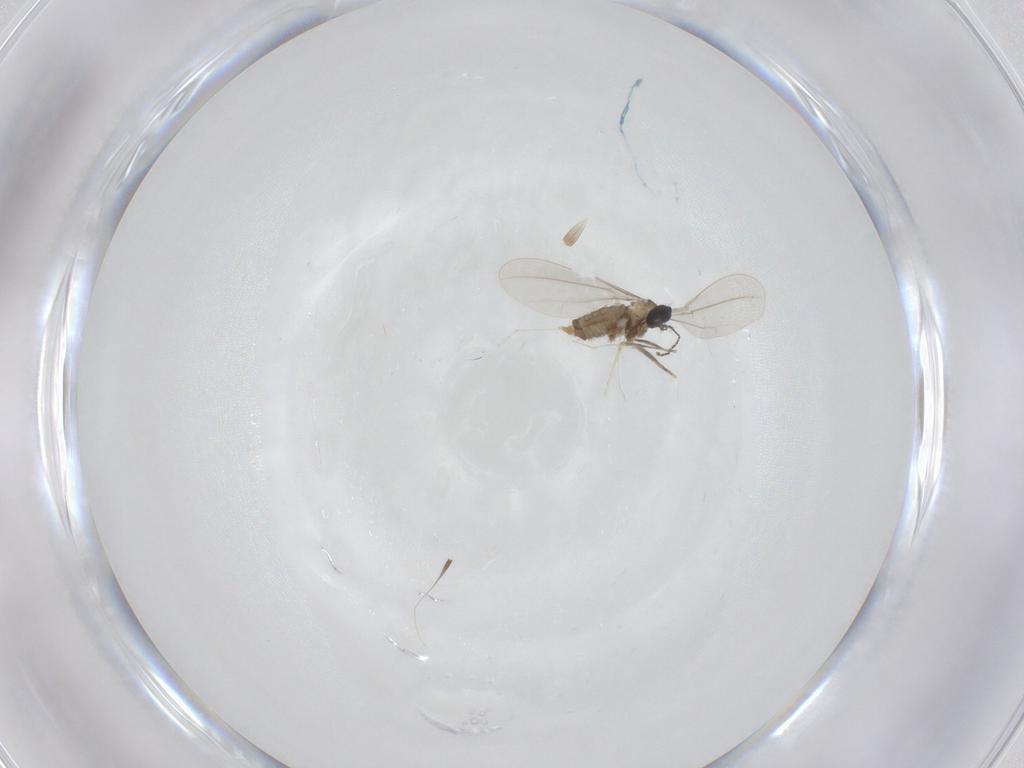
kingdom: Animalia
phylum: Arthropoda
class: Insecta
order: Diptera
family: Cecidomyiidae
